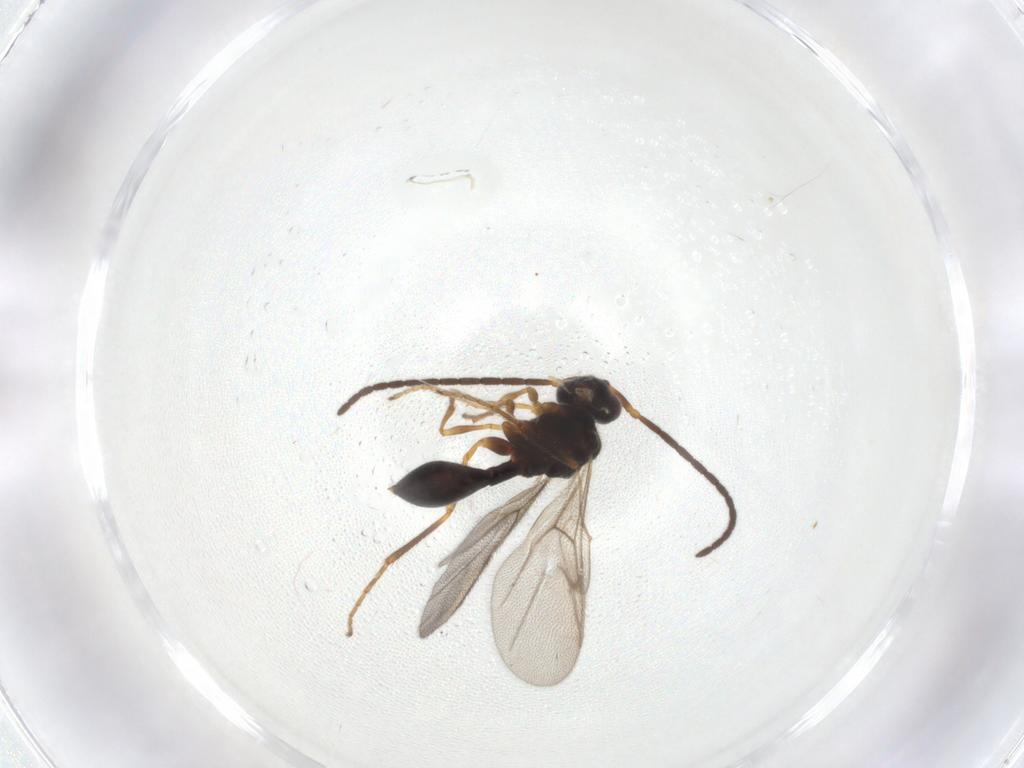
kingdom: Animalia
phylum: Arthropoda
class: Insecta
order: Hymenoptera
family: Diapriidae
